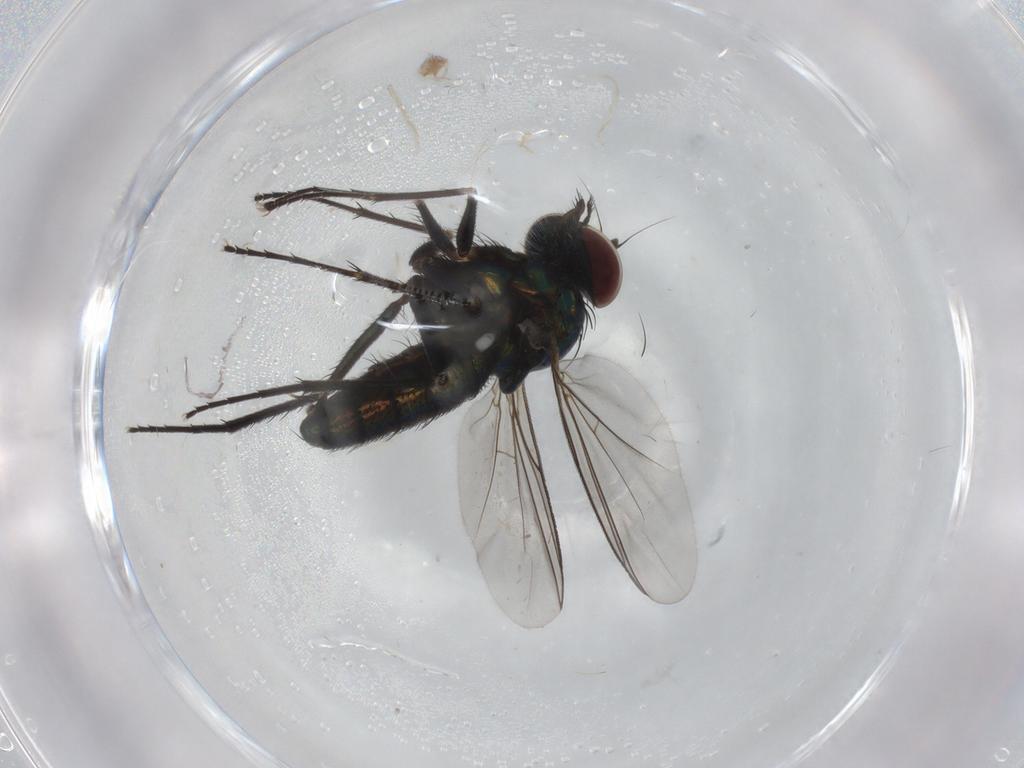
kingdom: Animalia
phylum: Arthropoda
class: Insecta
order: Diptera
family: Dolichopodidae
